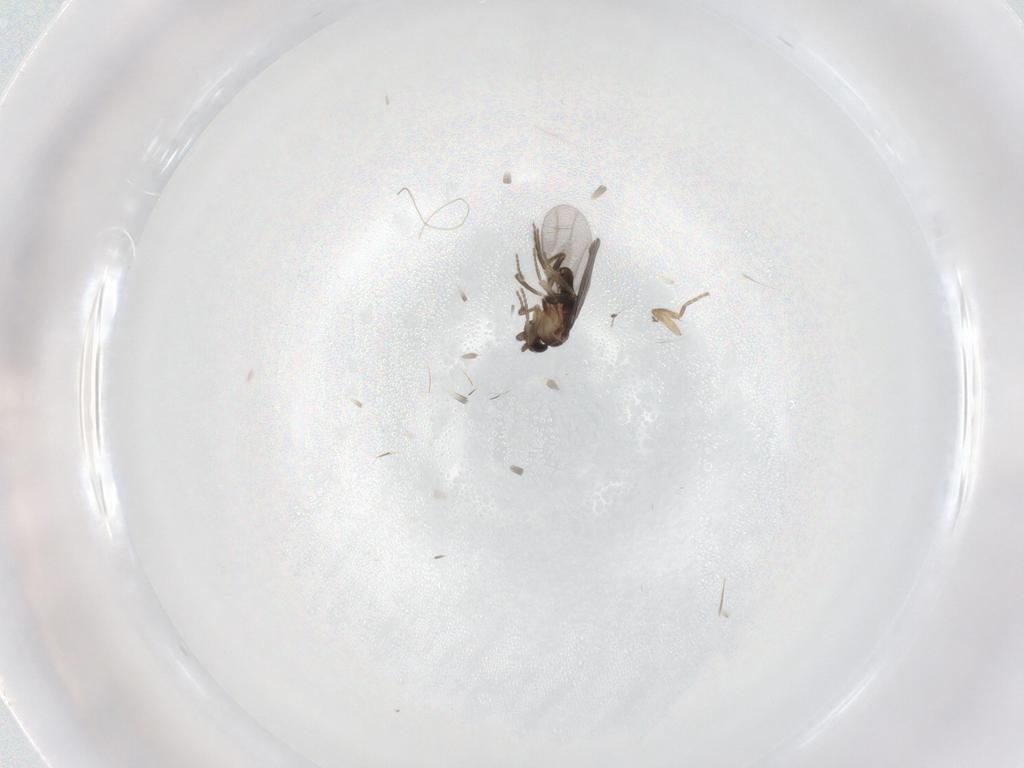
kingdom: Animalia
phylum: Arthropoda
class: Insecta
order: Diptera
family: Phoridae
